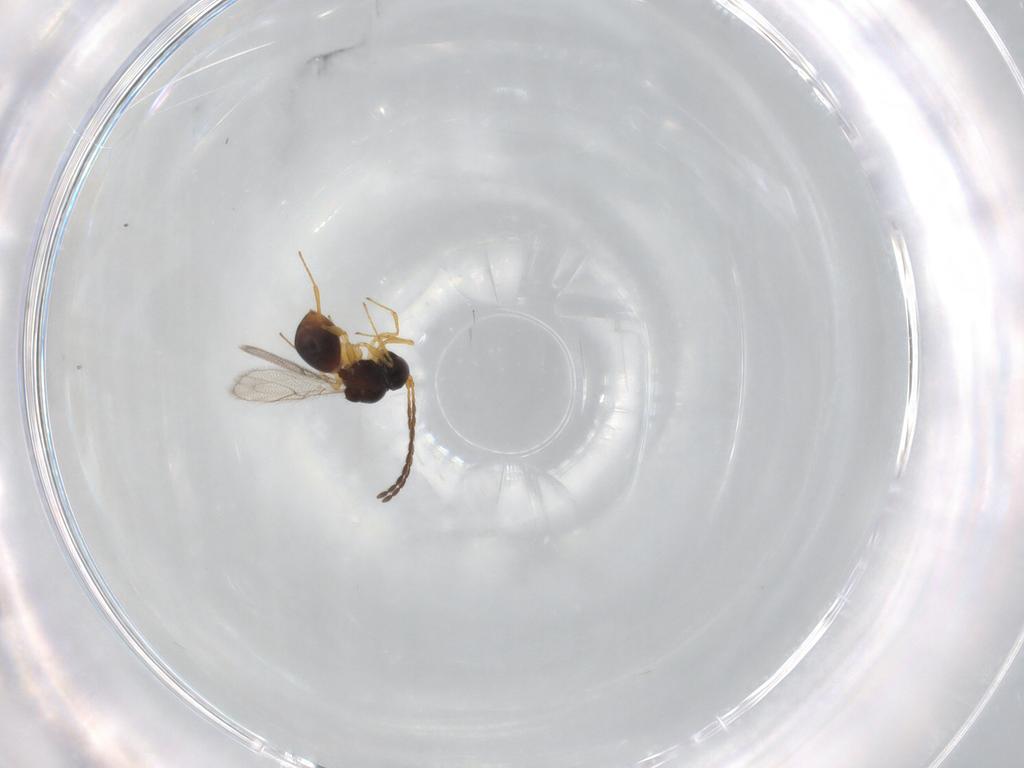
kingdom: Animalia
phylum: Arthropoda
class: Insecta
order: Hymenoptera
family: Figitidae
